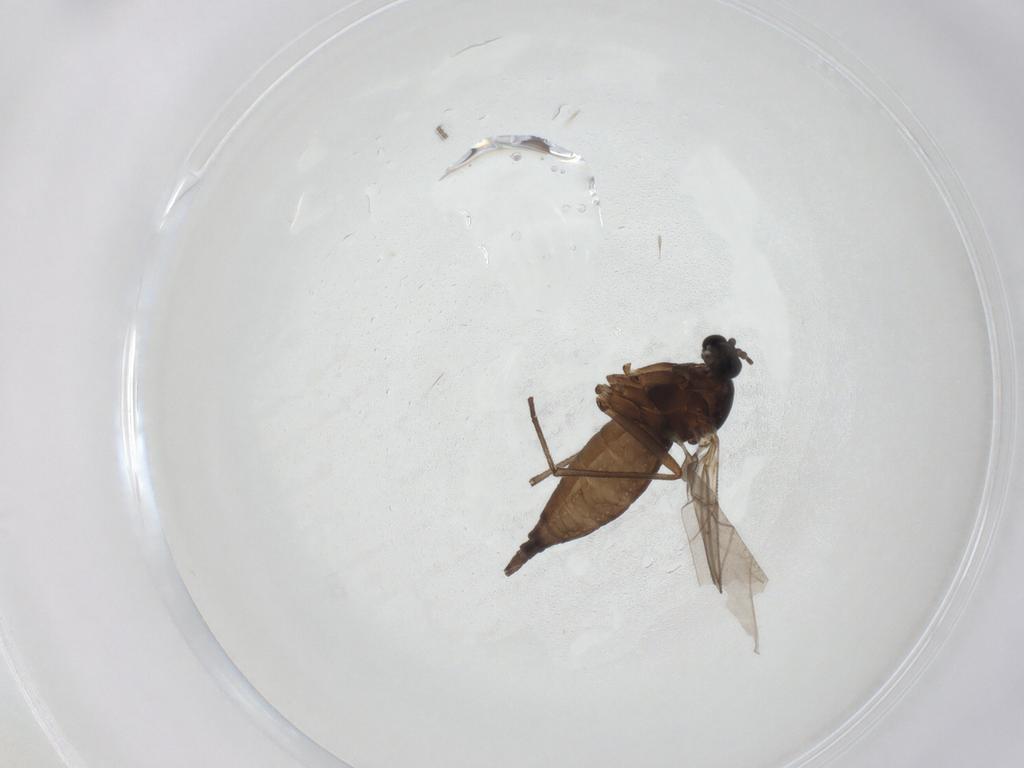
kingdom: Animalia
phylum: Arthropoda
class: Insecta
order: Diptera
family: Sciaridae
